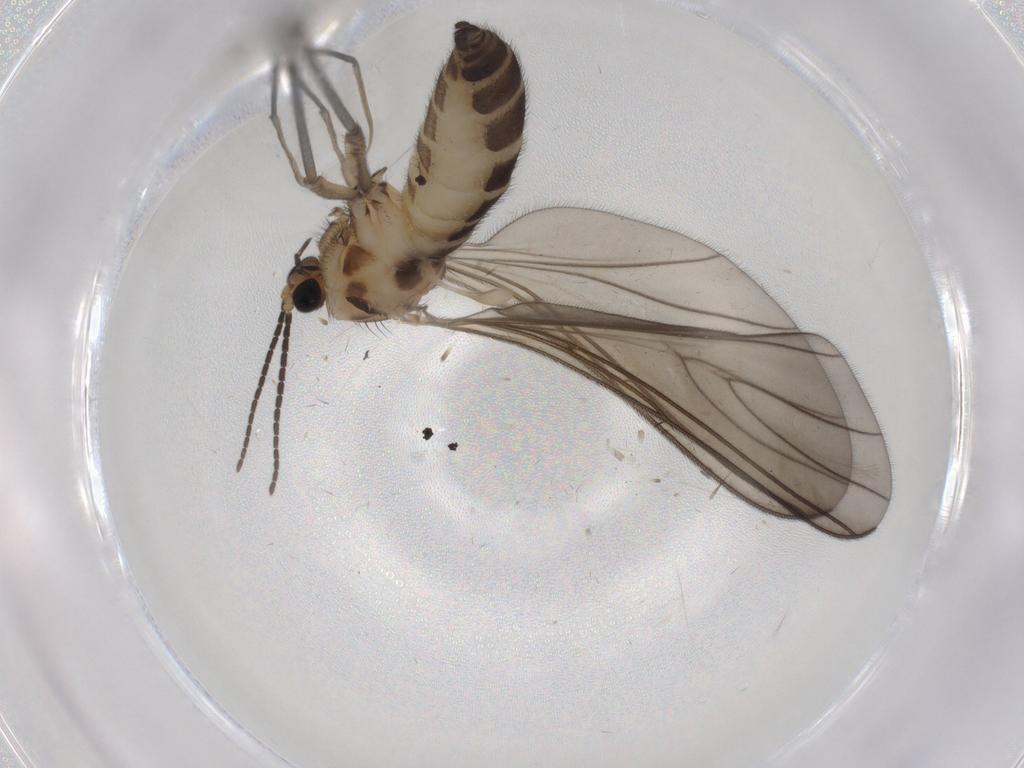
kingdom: Animalia
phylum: Arthropoda
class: Insecta
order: Diptera
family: Sciaridae
